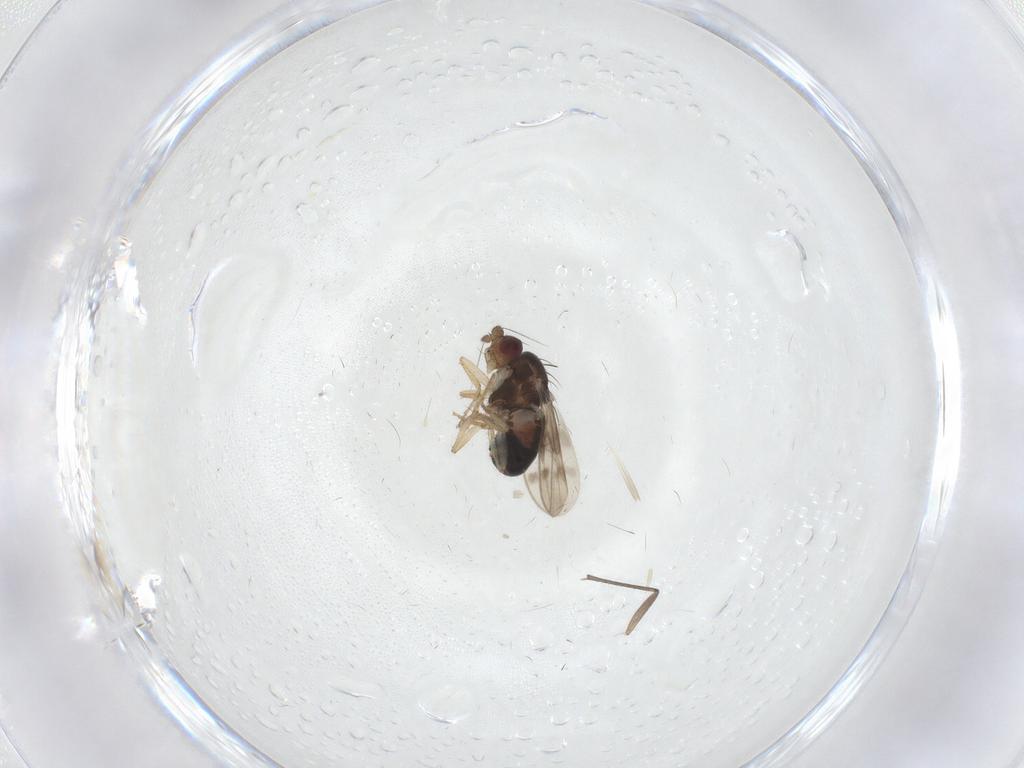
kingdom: Animalia
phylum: Arthropoda
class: Insecta
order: Diptera
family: Sphaeroceridae
